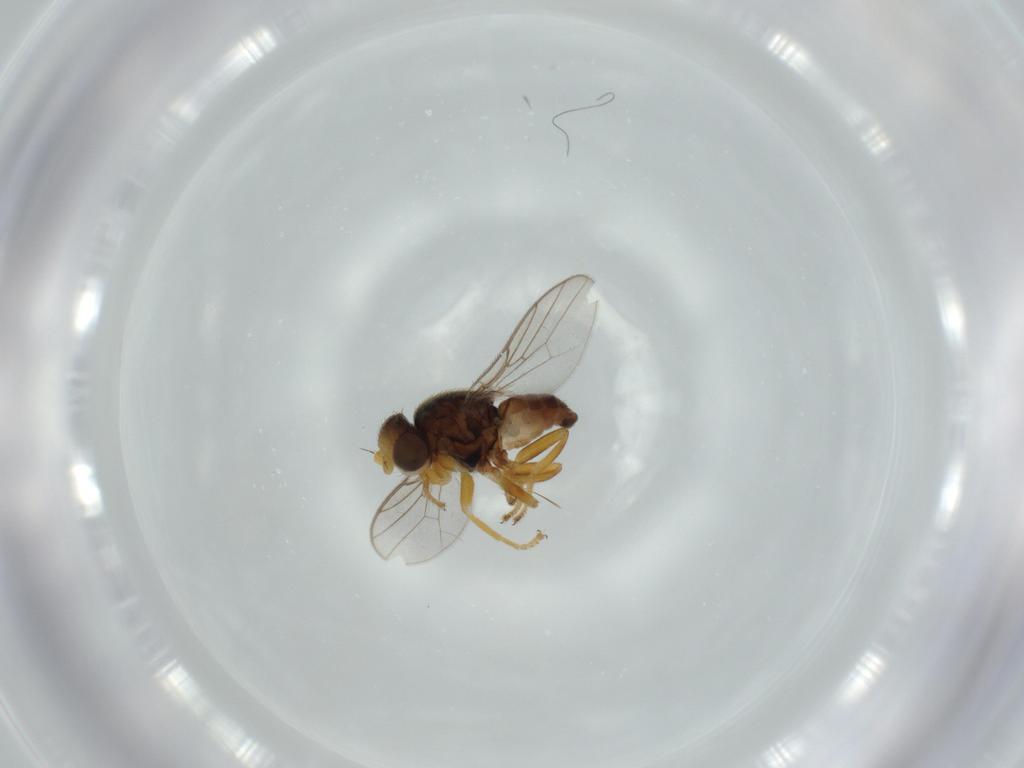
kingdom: Animalia
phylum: Arthropoda
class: Insecta
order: Diptera
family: Chloropidae
